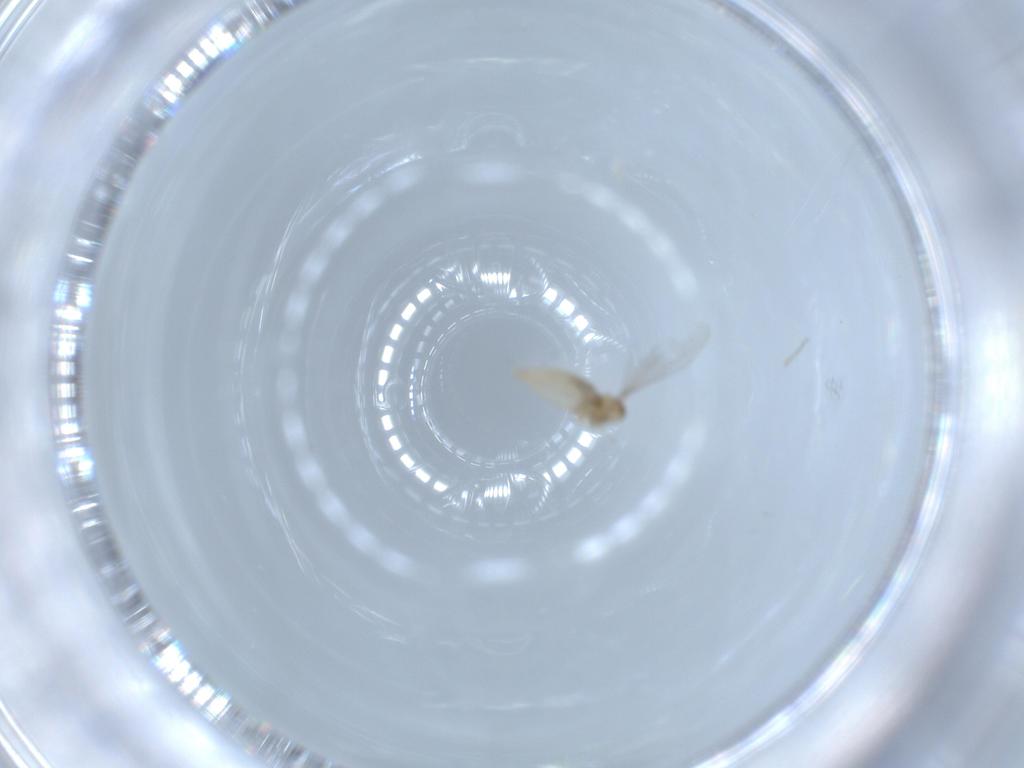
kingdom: Animalia
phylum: Arthropoda
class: Insecta
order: Diptera
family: Cecidomyiidae
